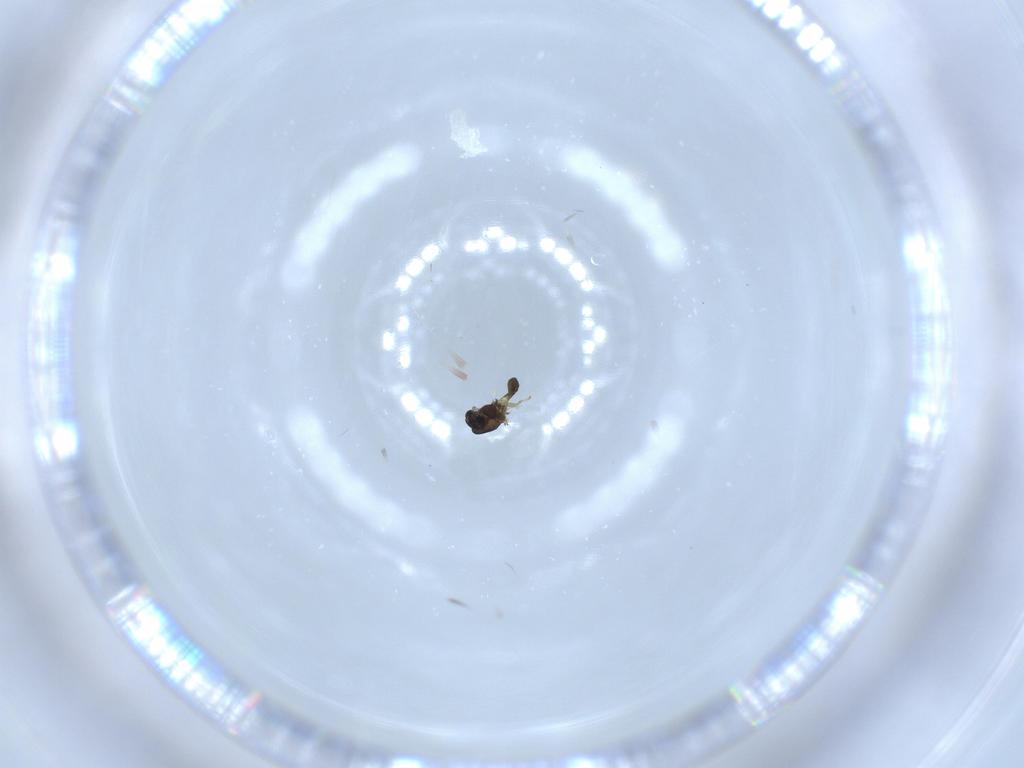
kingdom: Animalia
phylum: Arthropoda
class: Insecta
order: Diptera
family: Chironomidae
